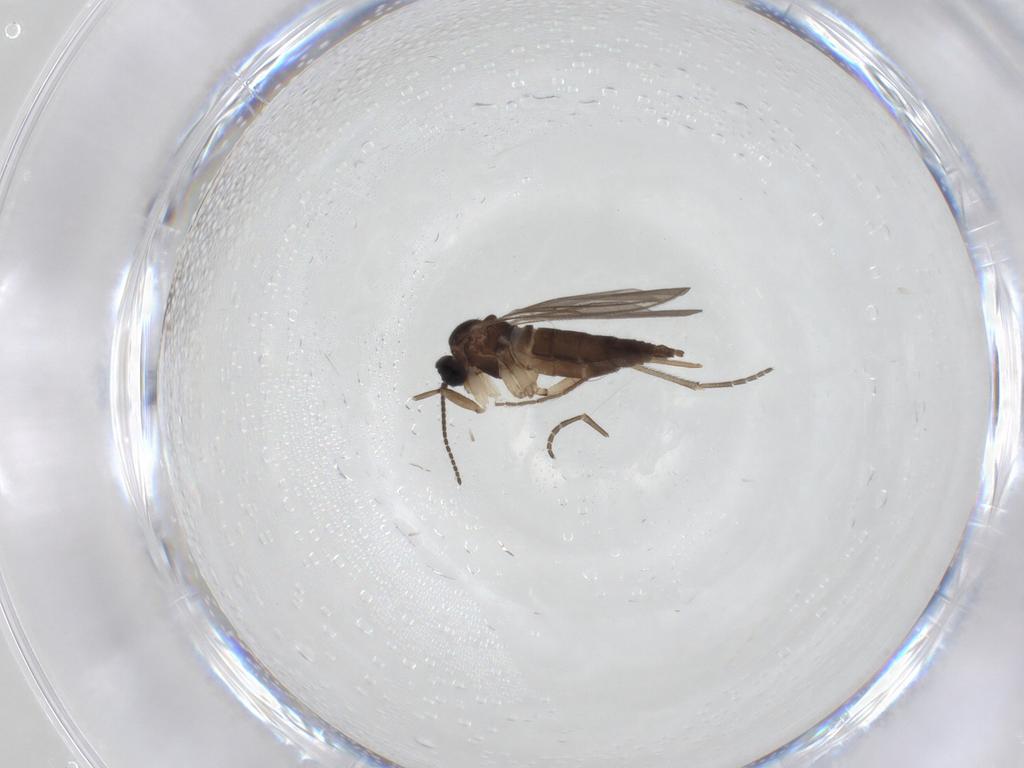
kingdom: Animalia
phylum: Arthropoda
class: Insecta
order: Diptera
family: Sciaridae
